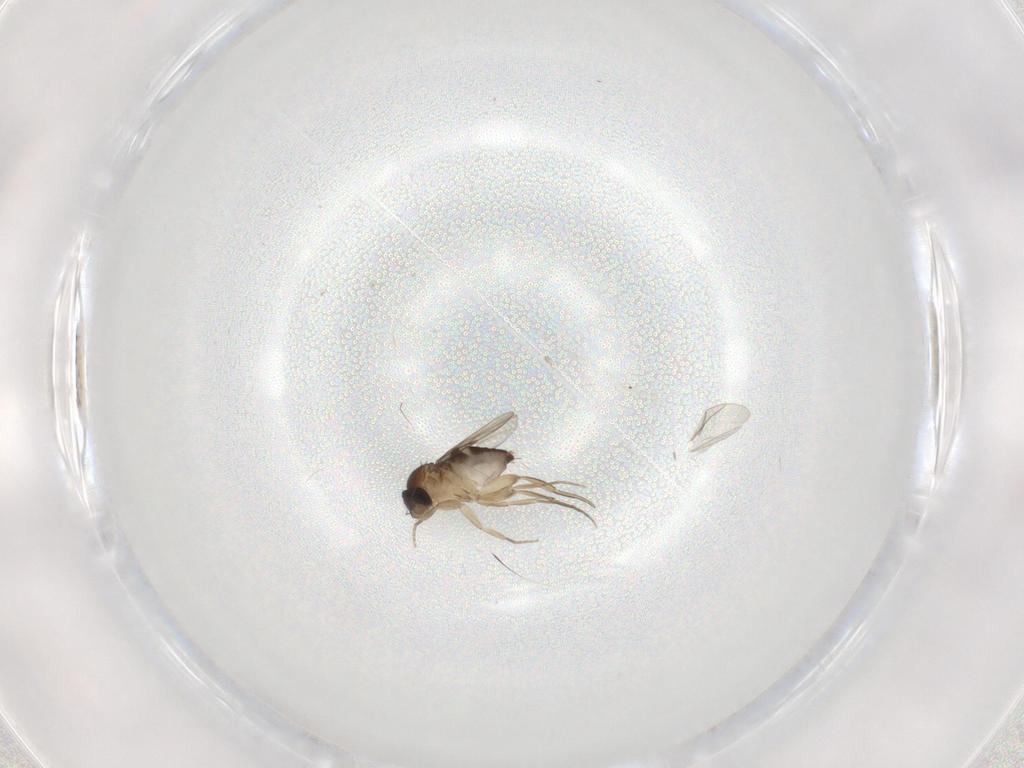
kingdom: Animalia
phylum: Arthropoda
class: Insecta
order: Diptera
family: Phoridae
